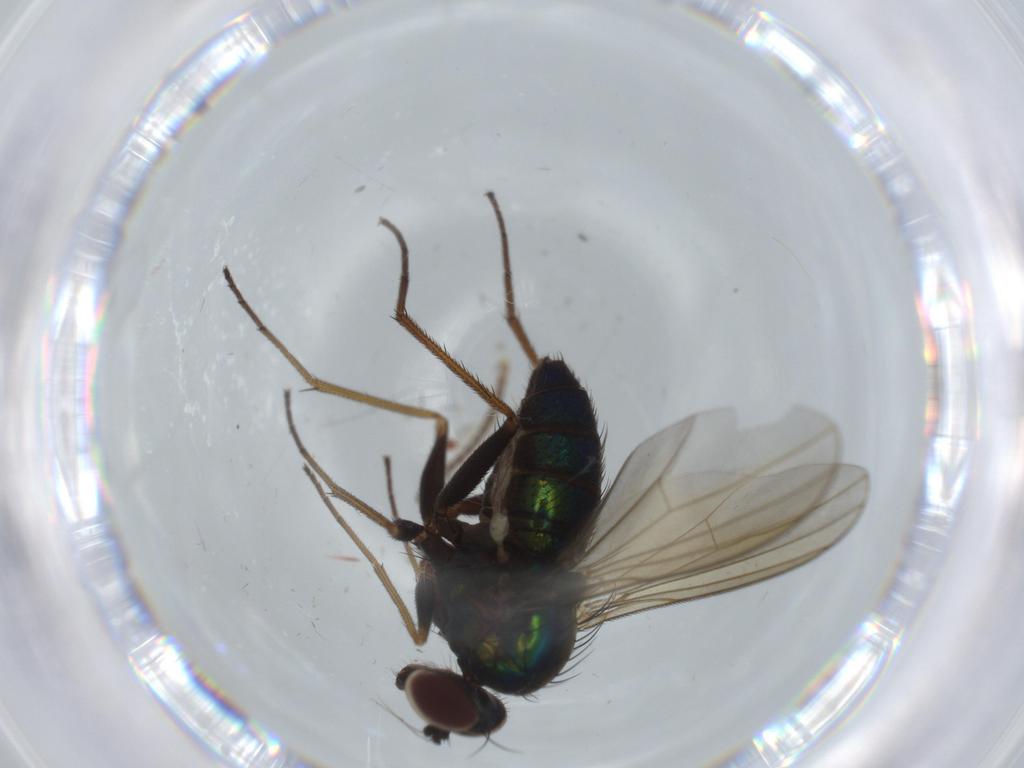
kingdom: Animalia
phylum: Arthropoda
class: Insecta
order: Diptera
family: Dolichopodidae
